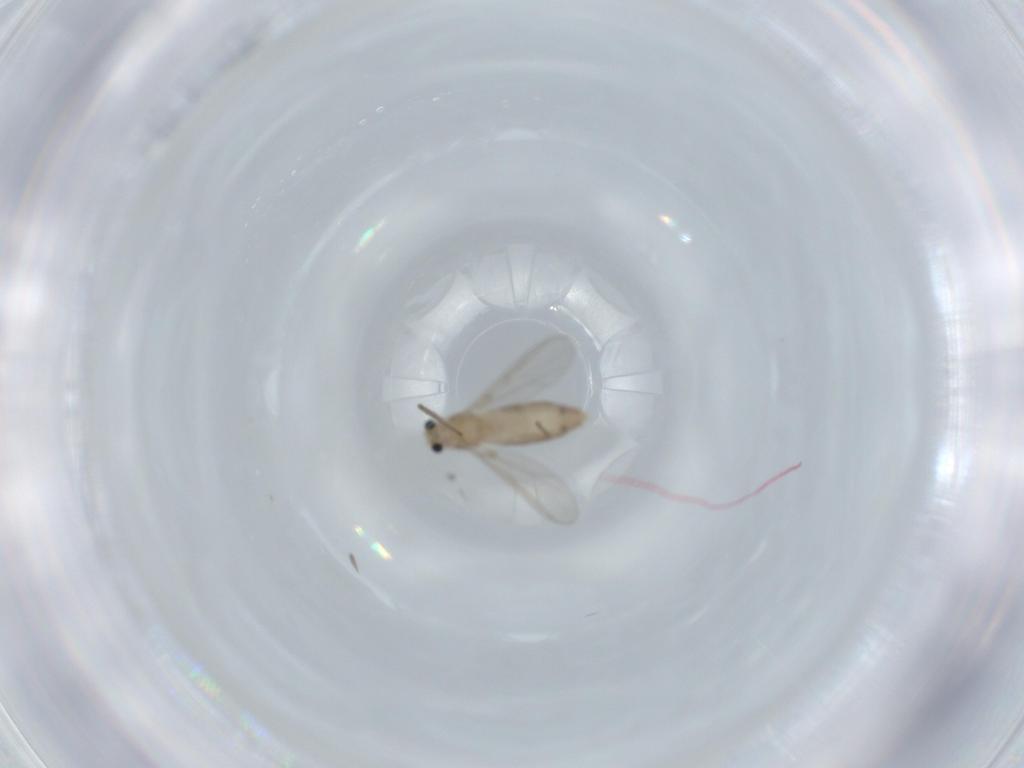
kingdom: Animalia
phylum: Arthropoda
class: Insecta
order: Diptera
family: Chironomidae
